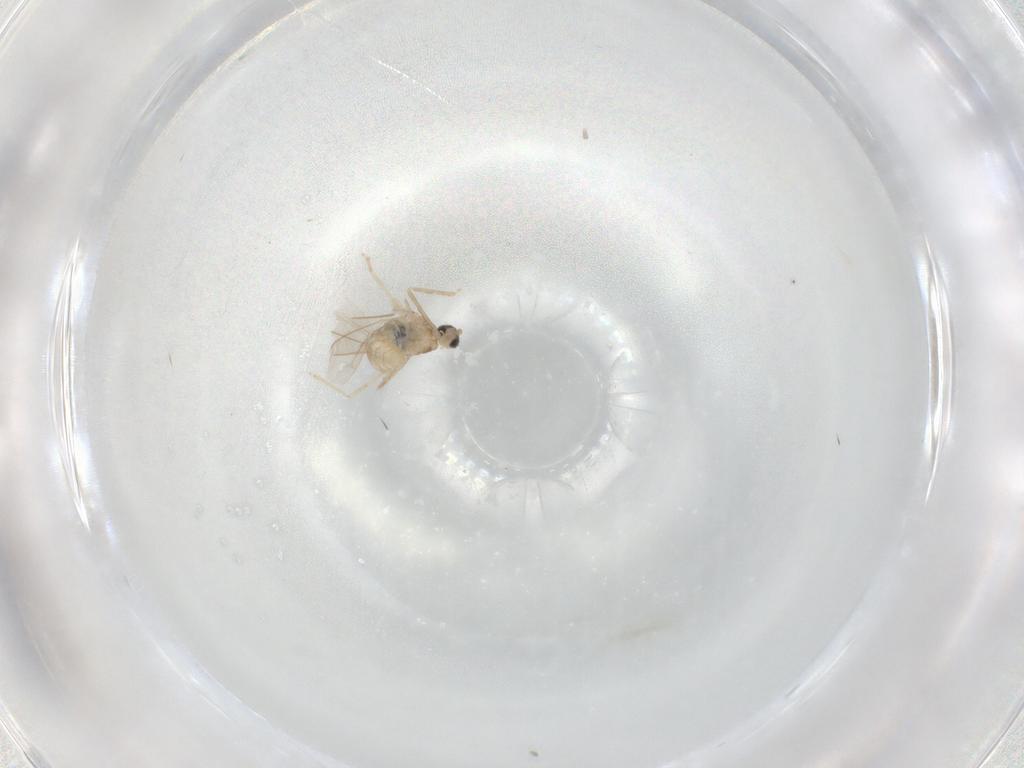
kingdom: Animalia
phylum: Arthropoda
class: Insecta
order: Diptera
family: Cecidomyiidae
